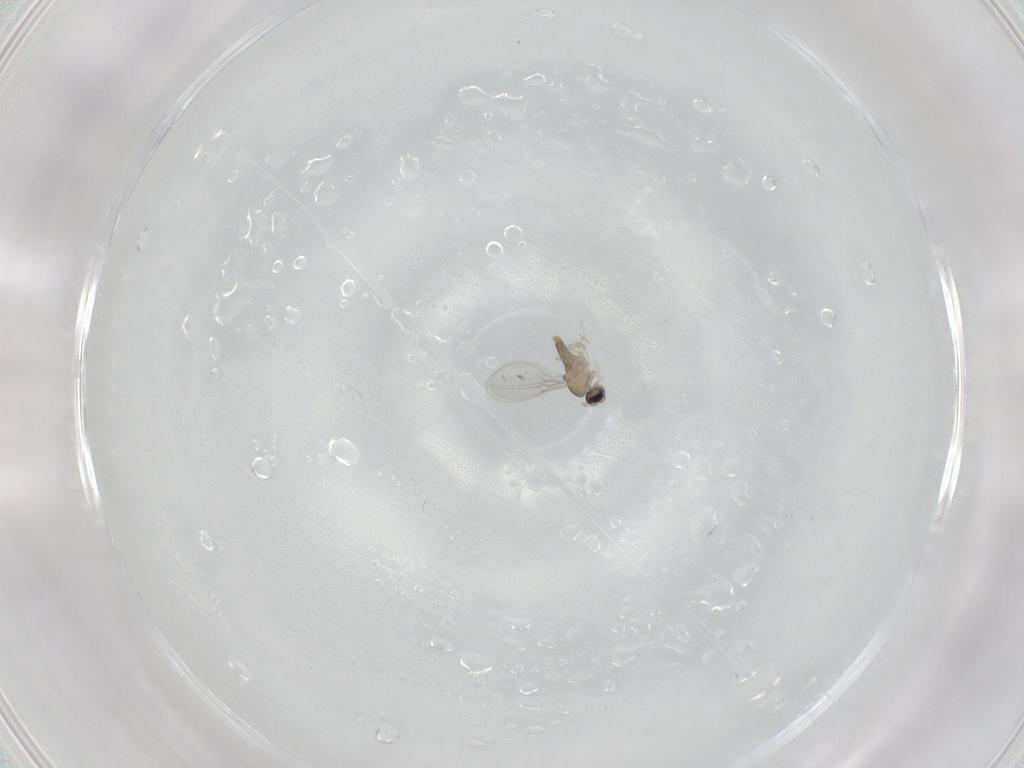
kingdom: Animalia
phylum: Arthropoda
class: Insecta
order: Diptera
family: Cecidomyiidae
